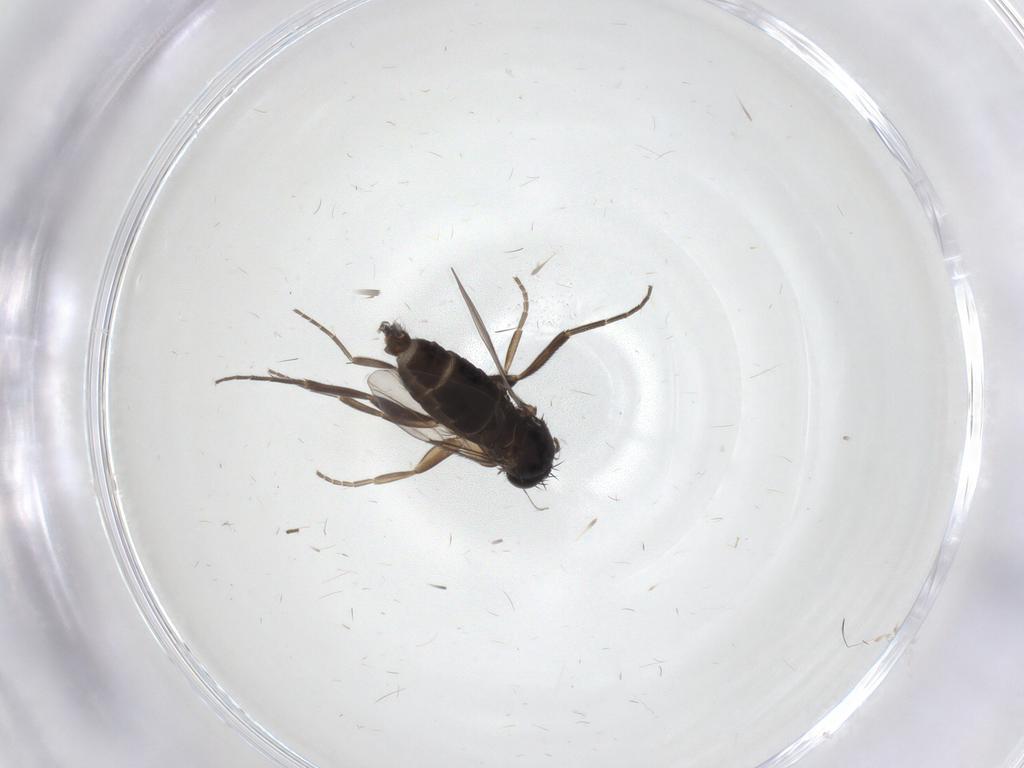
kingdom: Animalia
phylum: Arthropoda
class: Insecta
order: Diptera
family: Phoridae
